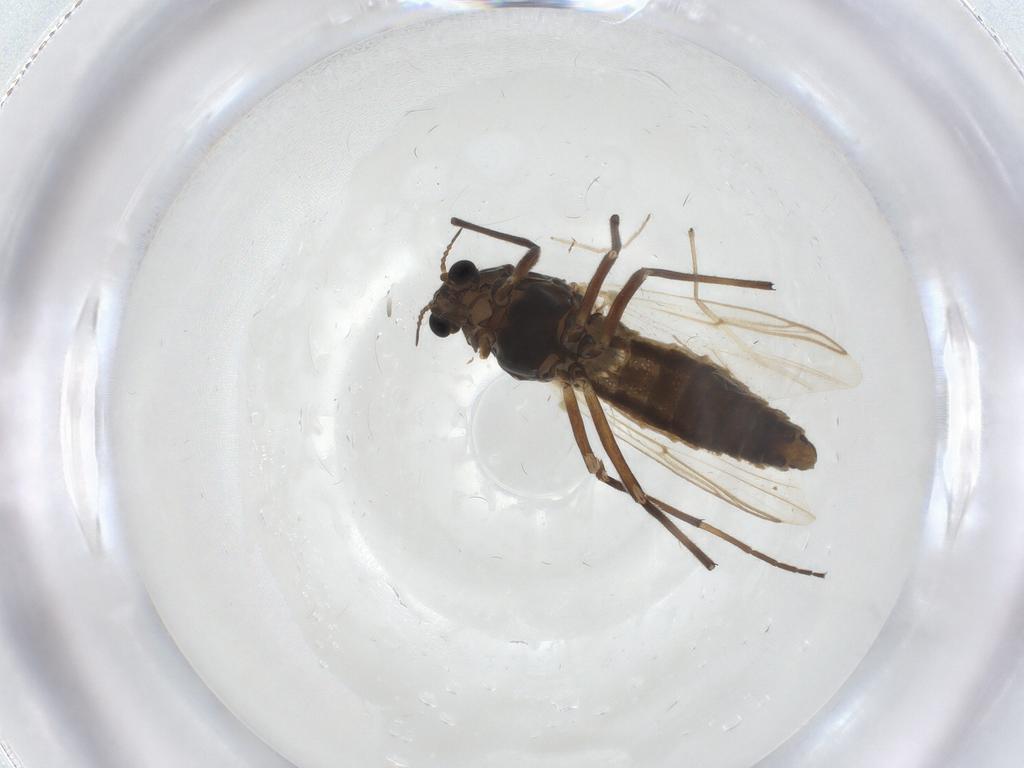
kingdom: Animalia
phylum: Arthropoda
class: Insecta
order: Diptera
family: Chironomidae
